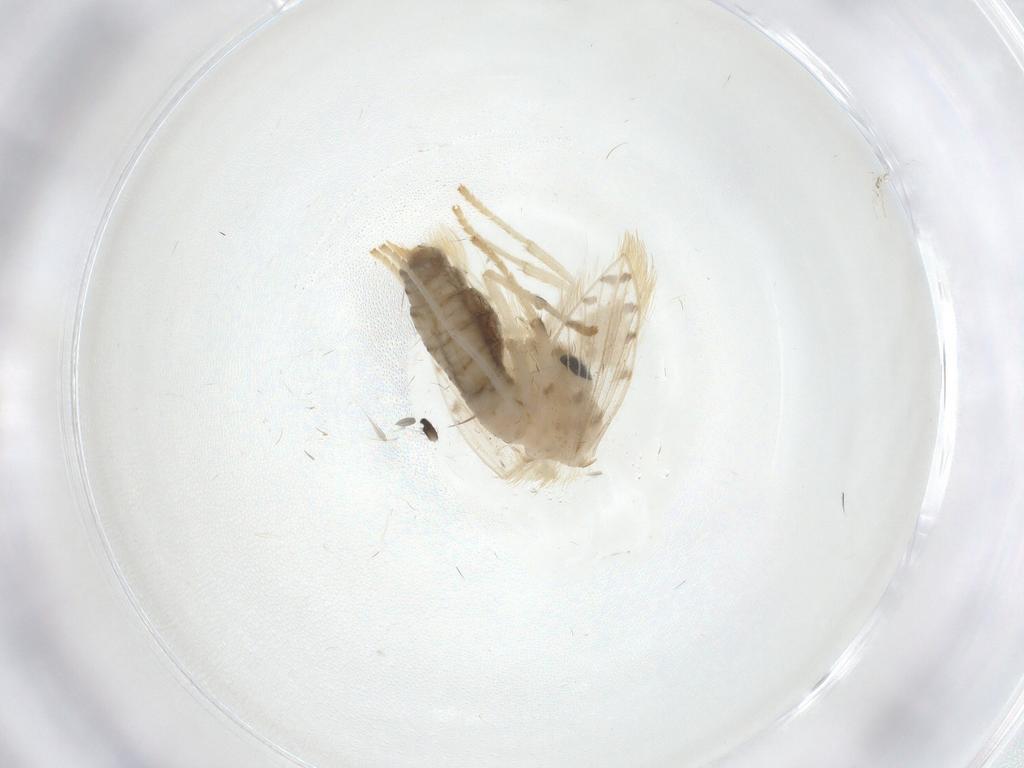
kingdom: Animalia
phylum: Arthropoda
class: Insecta
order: Diptera
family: Psychodidae
